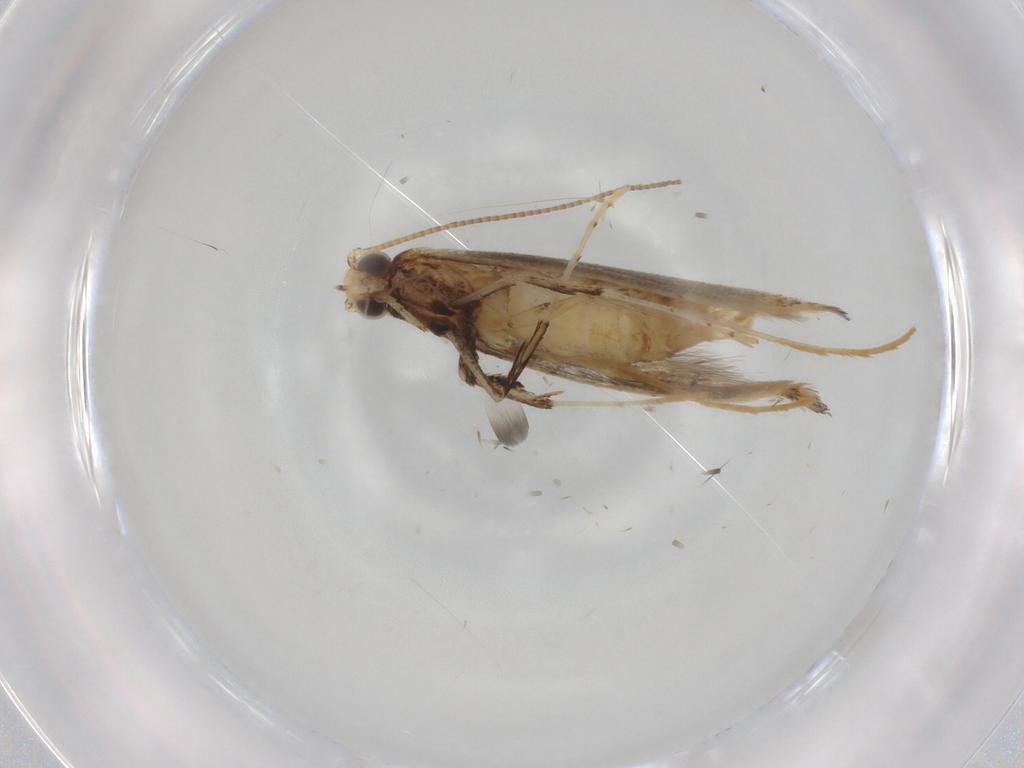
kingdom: Animalia
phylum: Arthropoda
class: Insecta
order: Lepidoptera
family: Gracillariidae
